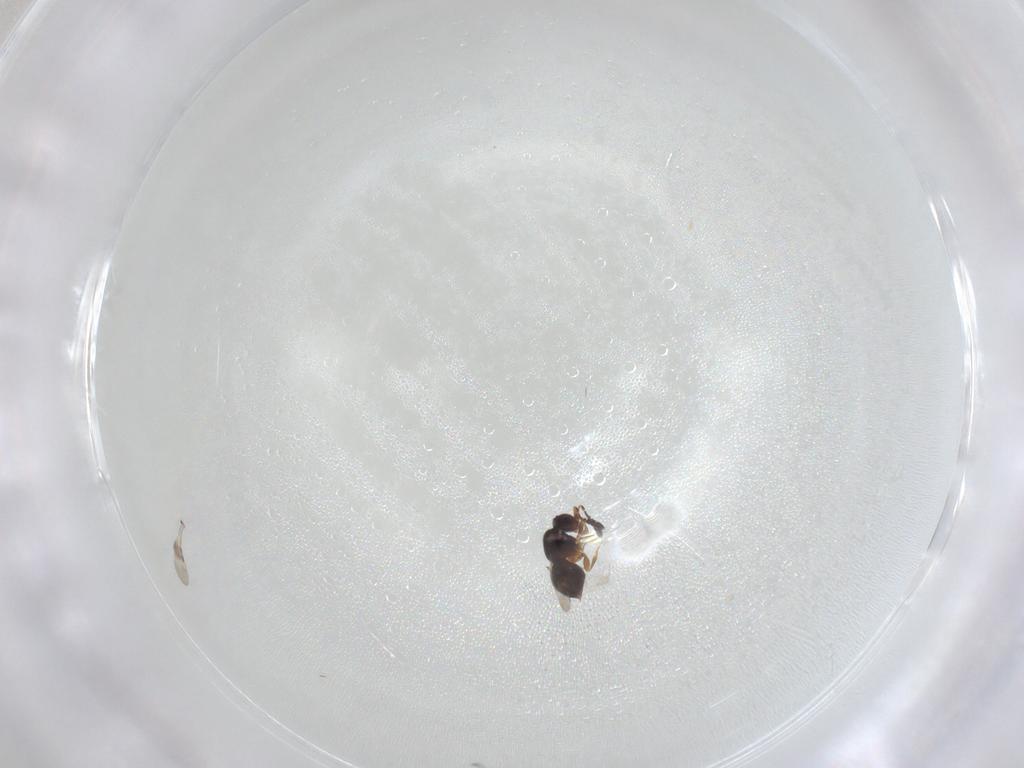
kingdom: Animalia
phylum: Arthropoda
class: Insecta
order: Hymenoptera
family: Ceraphronidae
